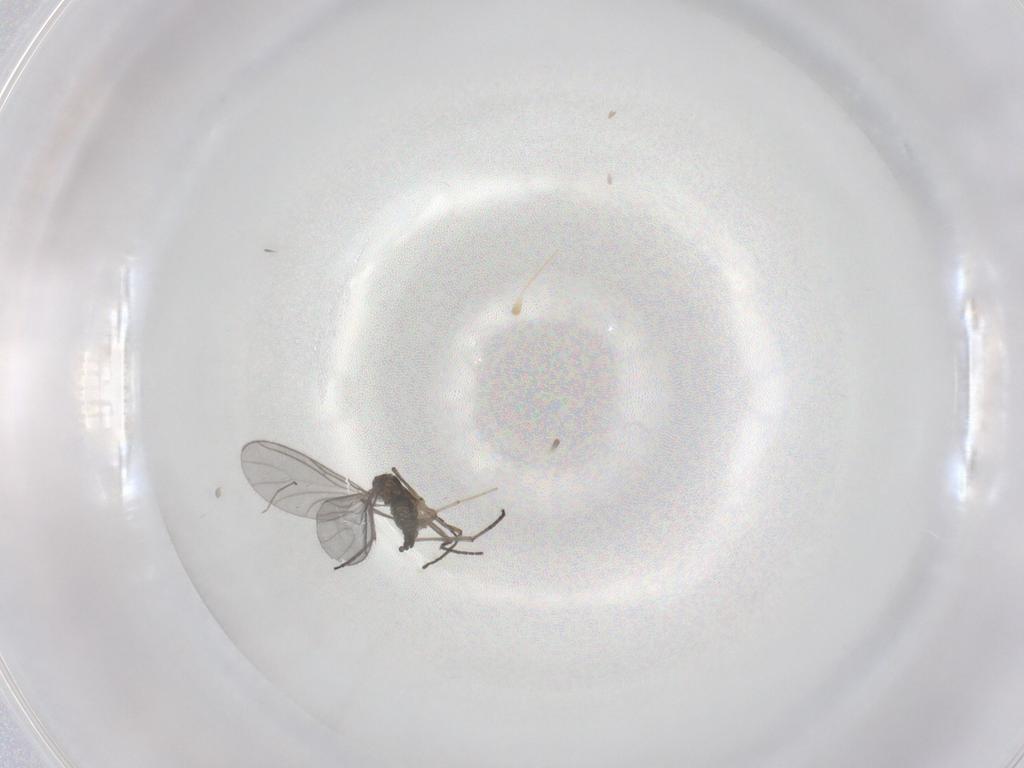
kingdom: Animalia
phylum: Arthropoda
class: Insecta
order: Diptera
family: Sciaridae
